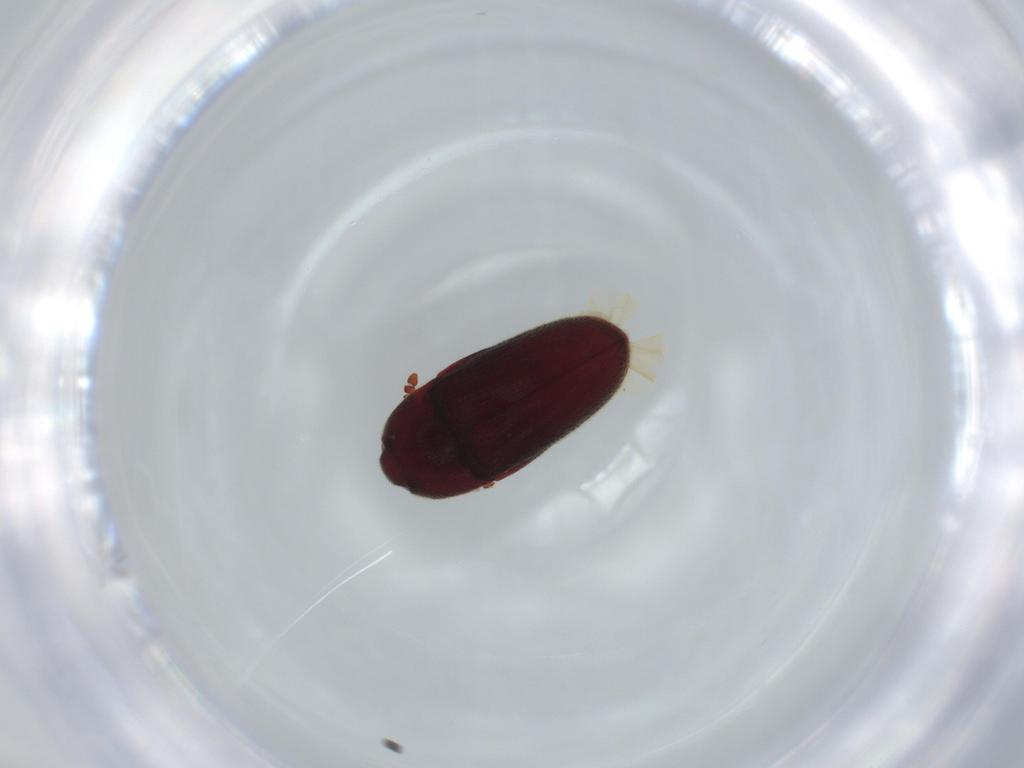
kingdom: Animalia
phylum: Arthropoda
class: Insecta
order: Coleoptera
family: Throscidae
